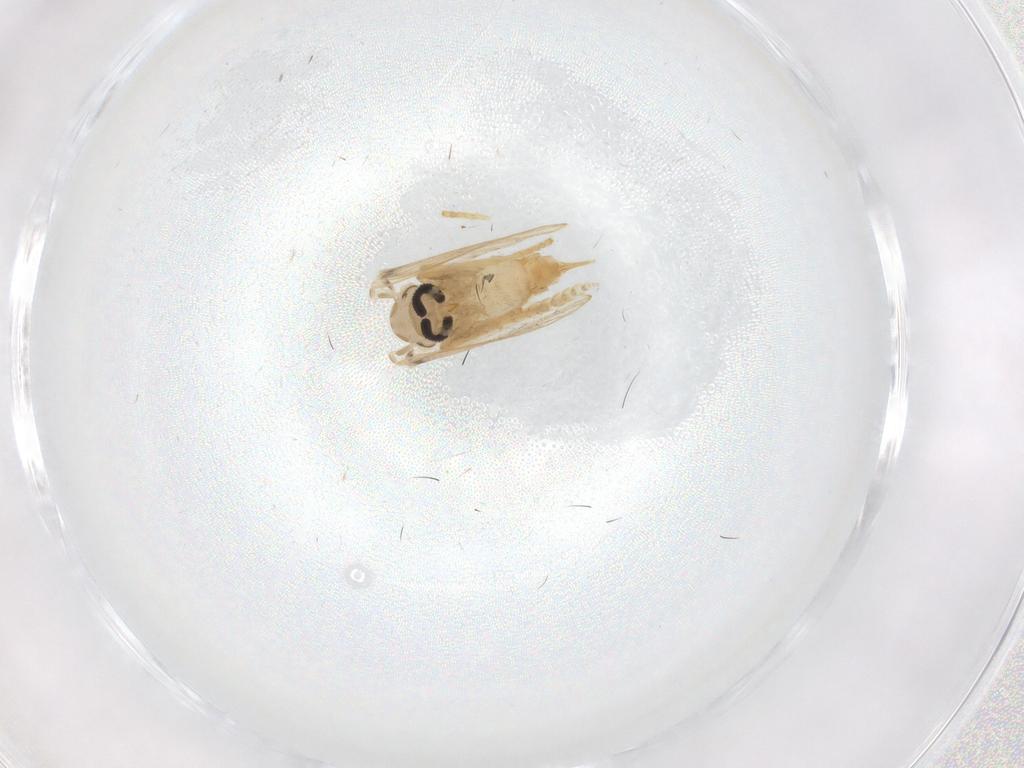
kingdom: Animalia
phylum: Arthropoda
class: Insecta
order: Diptera
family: Psychodidae
